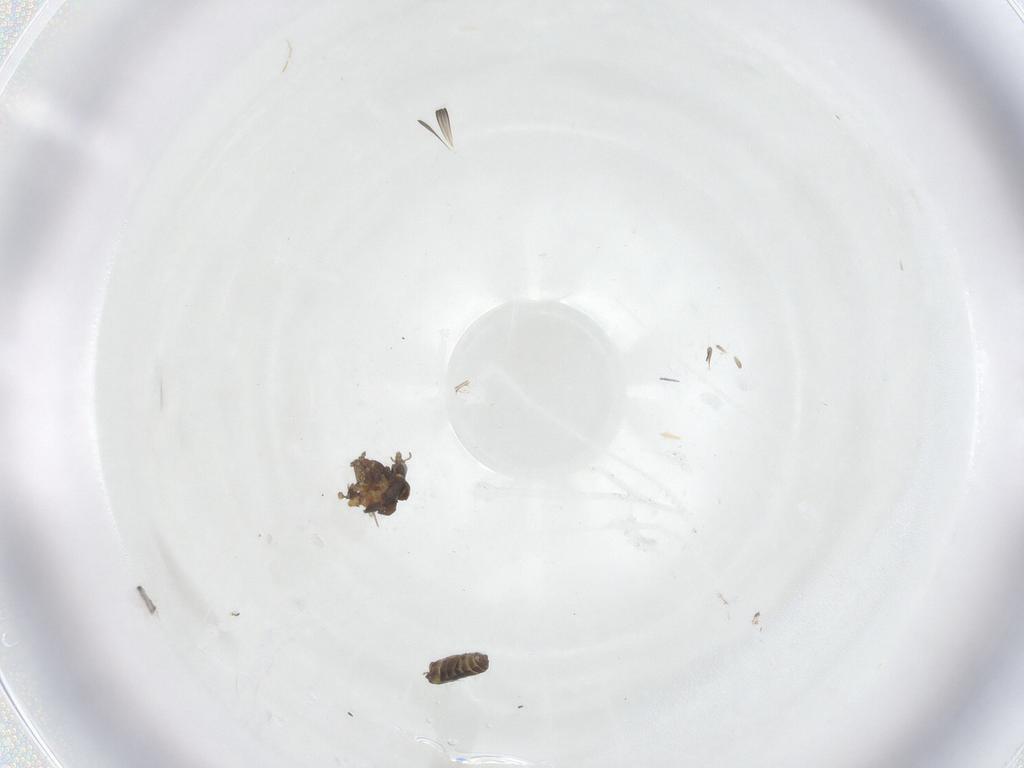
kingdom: Animalia
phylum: Arthropoda
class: Insecta
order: Diptera
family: Ceratopogonidae
